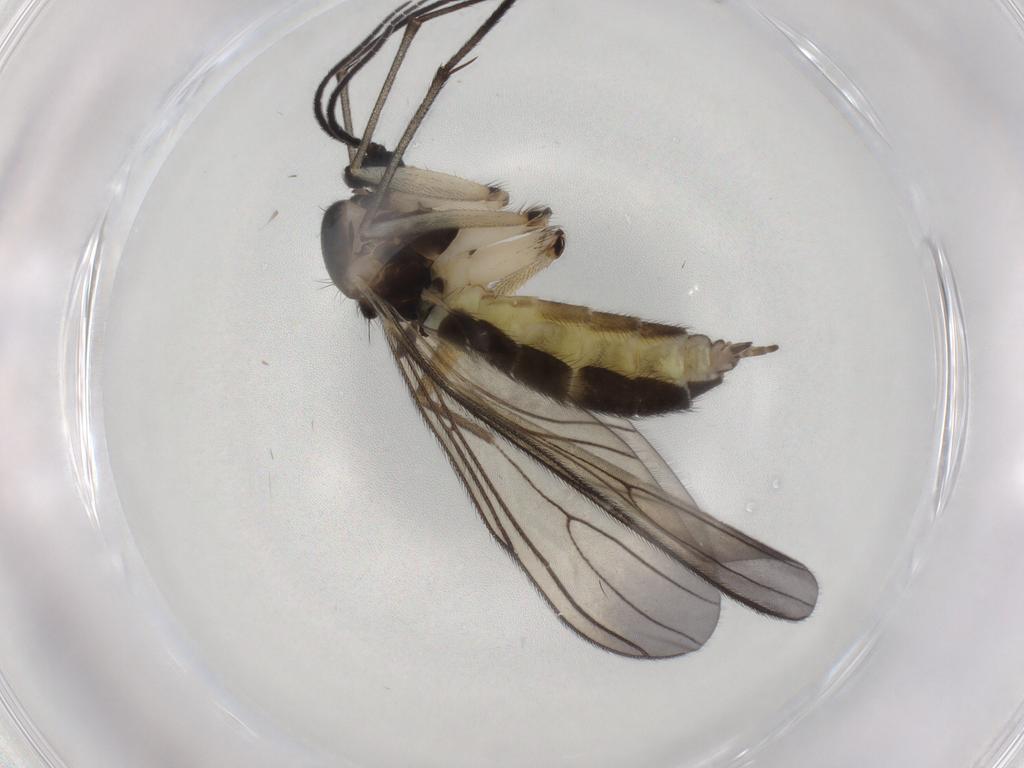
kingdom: Animalia
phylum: Arthropoda
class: Insecta
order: Diptera
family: Sciaridae
